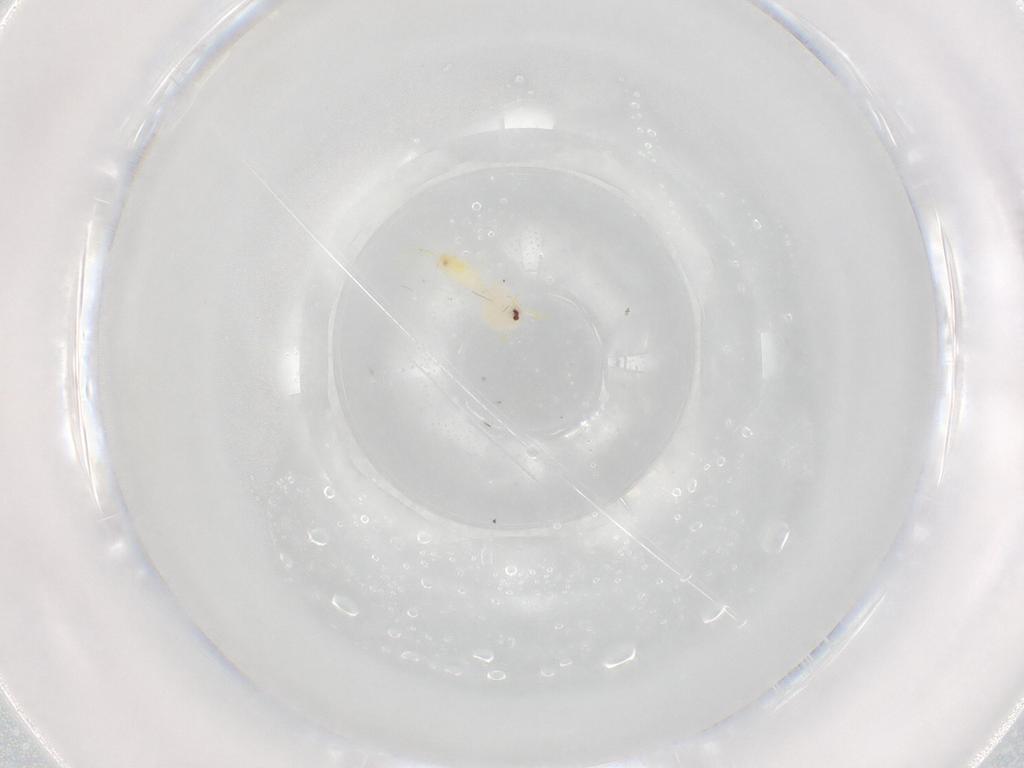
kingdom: Animalia
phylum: Arthropoda
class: Insecta
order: Hemiptera
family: Aleyrodidae
